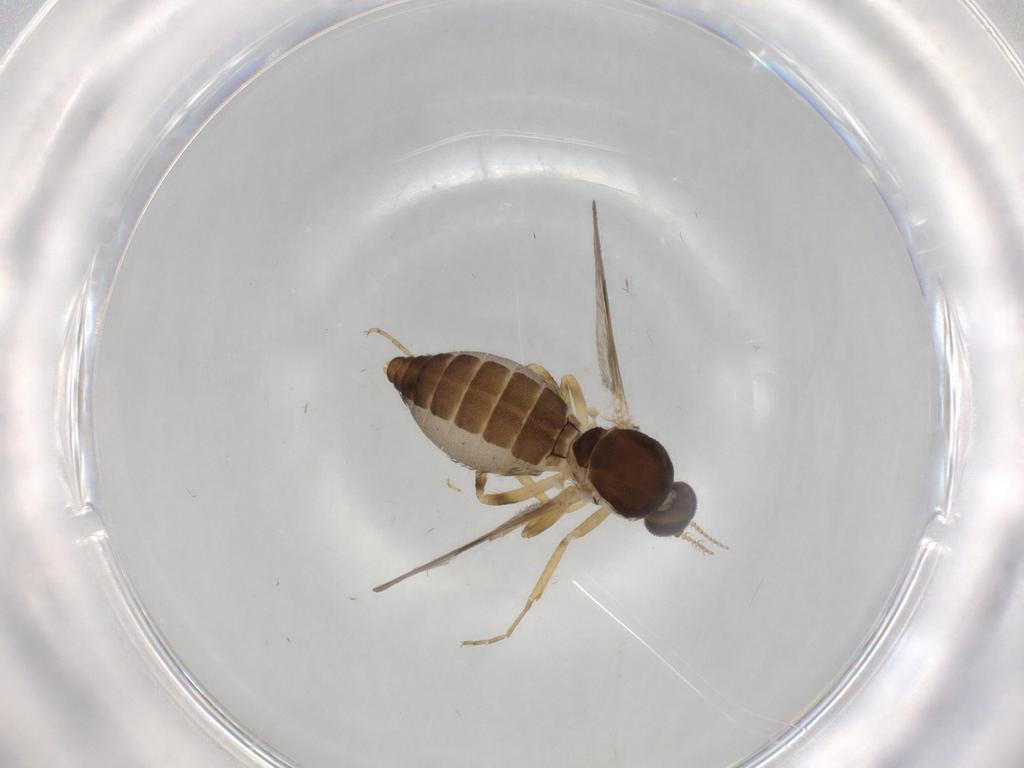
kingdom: Animalia
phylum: Arthropoda
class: Insecta
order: Diptera
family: Ceratopogonidae
